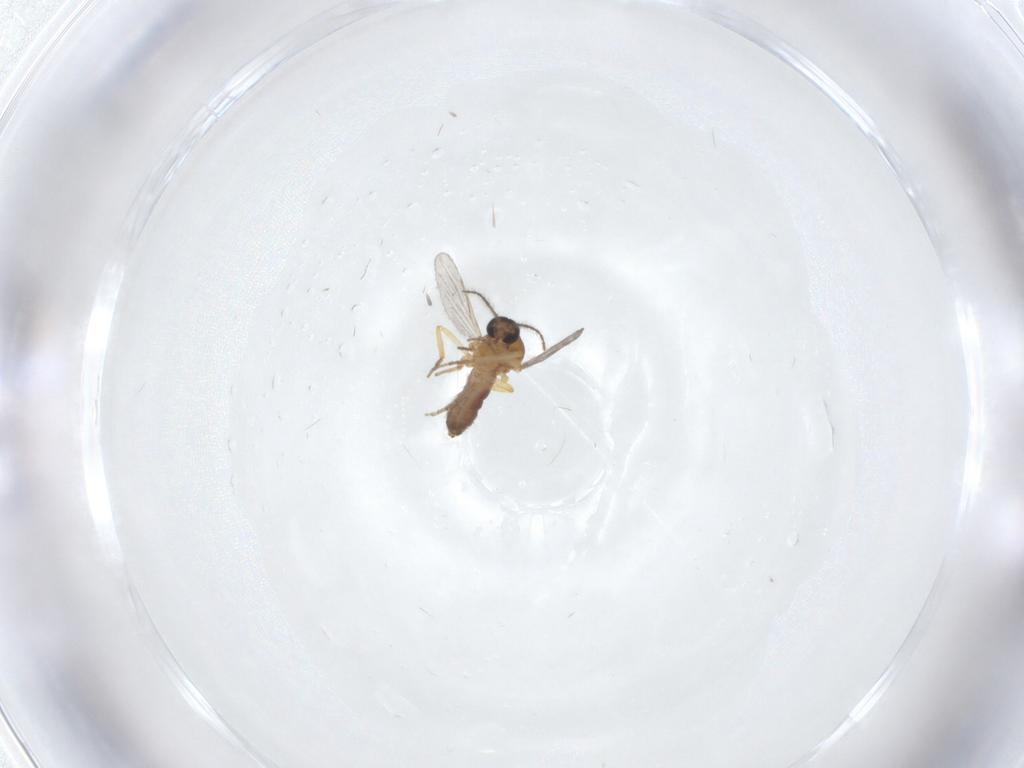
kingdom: Animalia
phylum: Arthropoda
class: Insecta
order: Diptera
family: Ceratopogonidae
